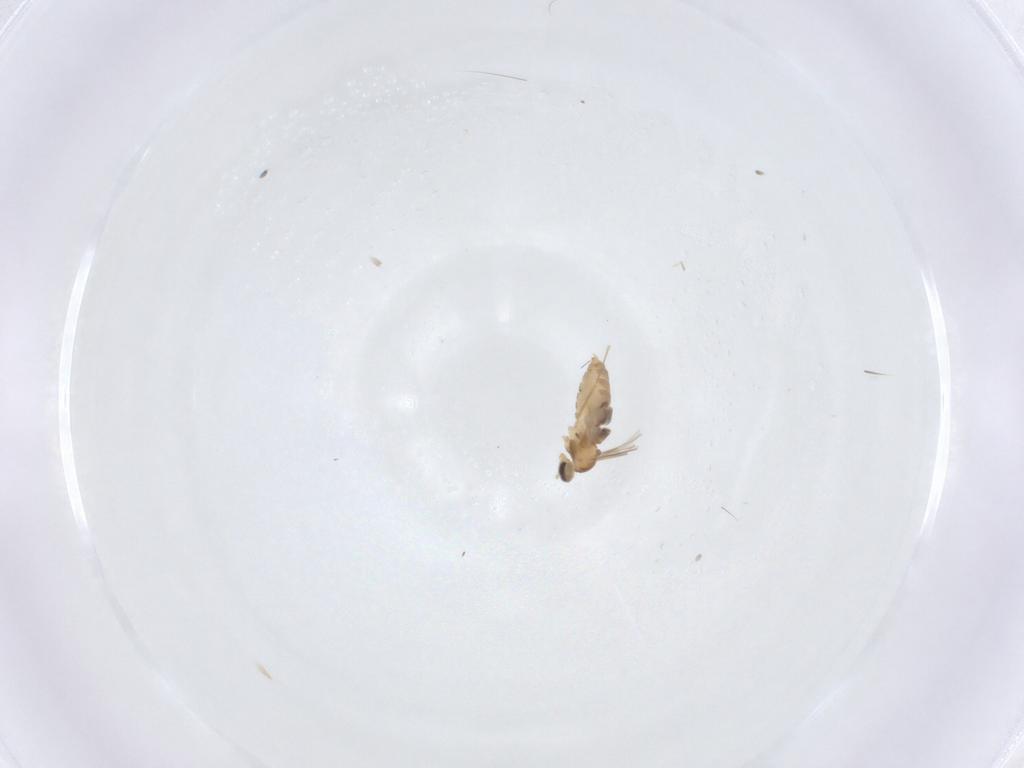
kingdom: Animalia
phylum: Arthropoda
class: Insecta
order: Diptera
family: Cecidomyiidae
